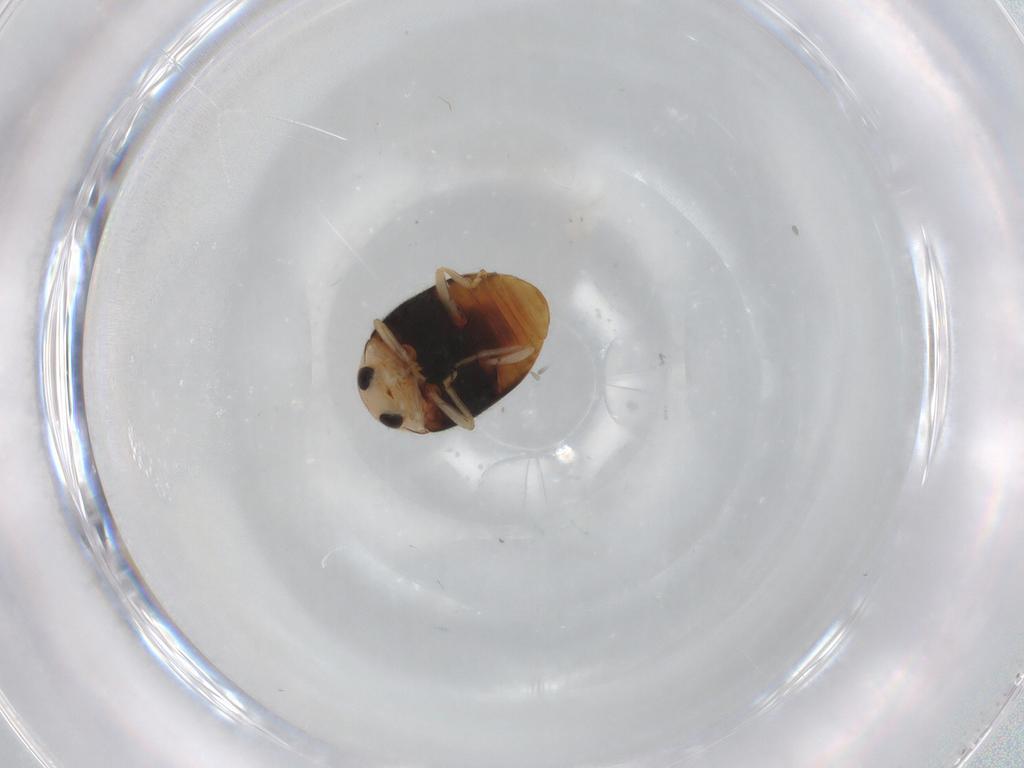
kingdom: Animalia
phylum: Arthropoda
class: Insecta
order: Coleoptera
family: Coccinellidae
